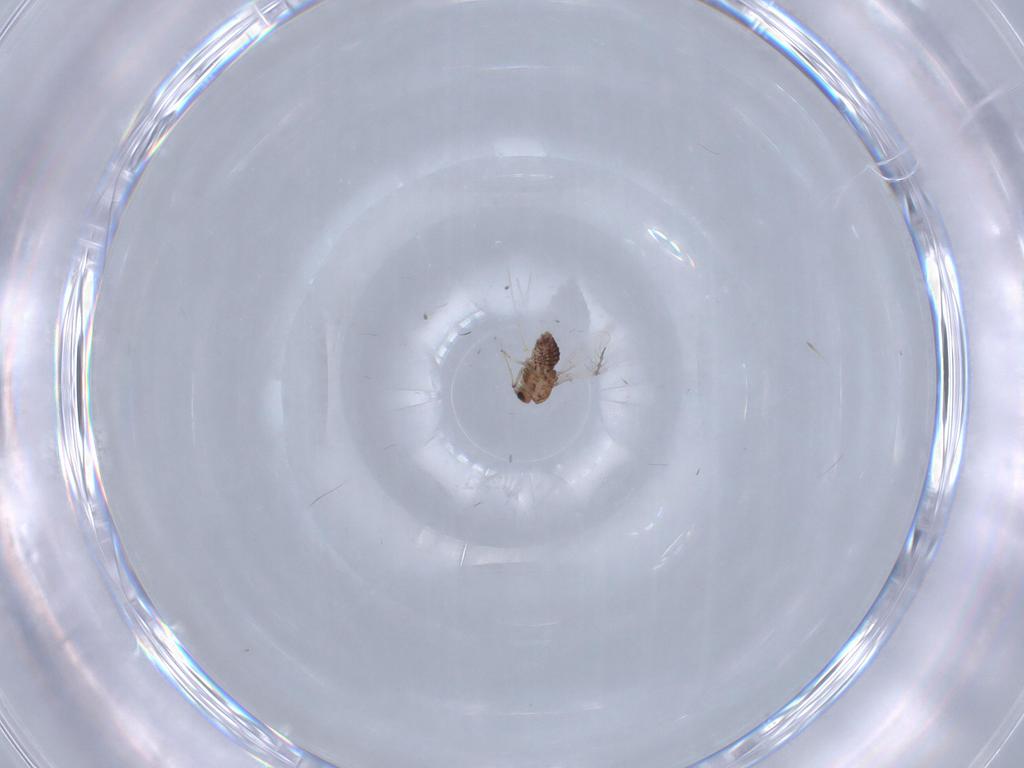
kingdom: Animalia
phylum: Arthropoda
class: Insecta
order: Diptera
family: Chironomidae
